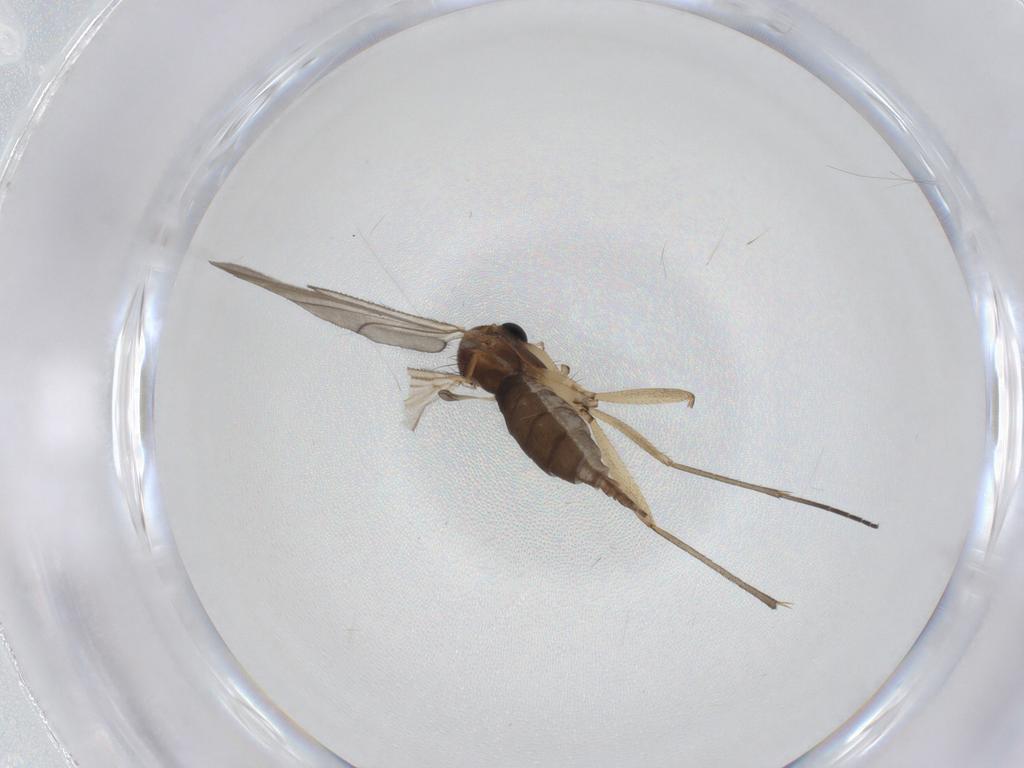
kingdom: Animalia
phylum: Arthropoda
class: Insecta
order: Diptera
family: Sciaridae
